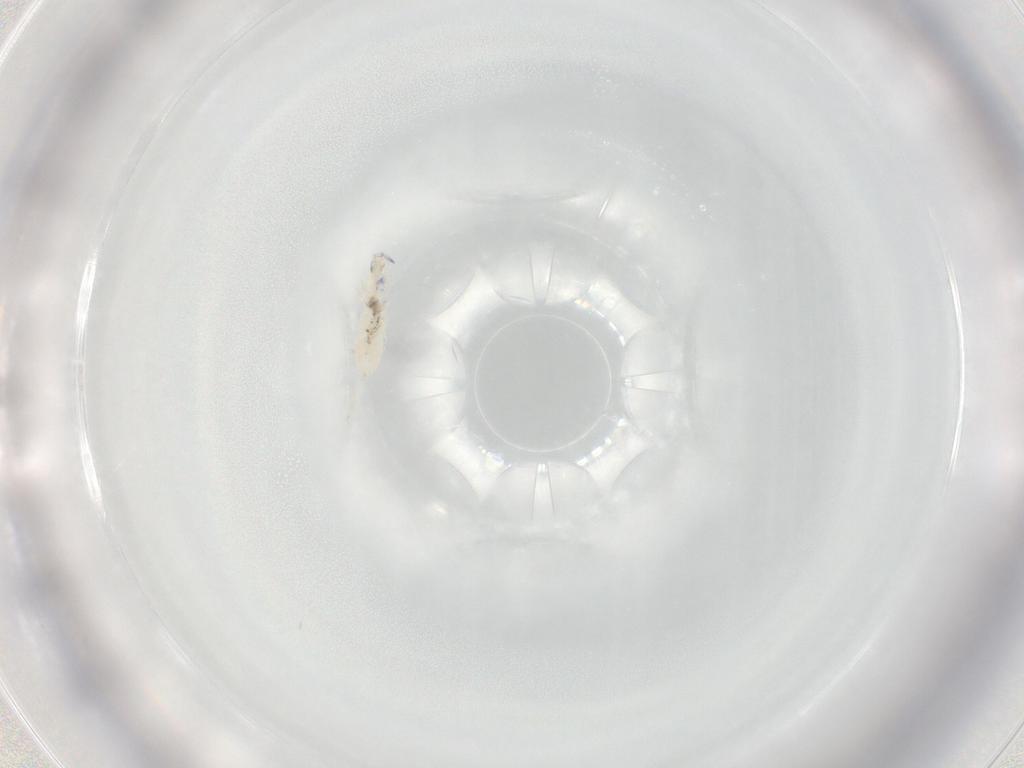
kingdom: Animalia
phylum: Arthropoda
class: Collembola
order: Entomobryomorpha
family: Entomobryidae
